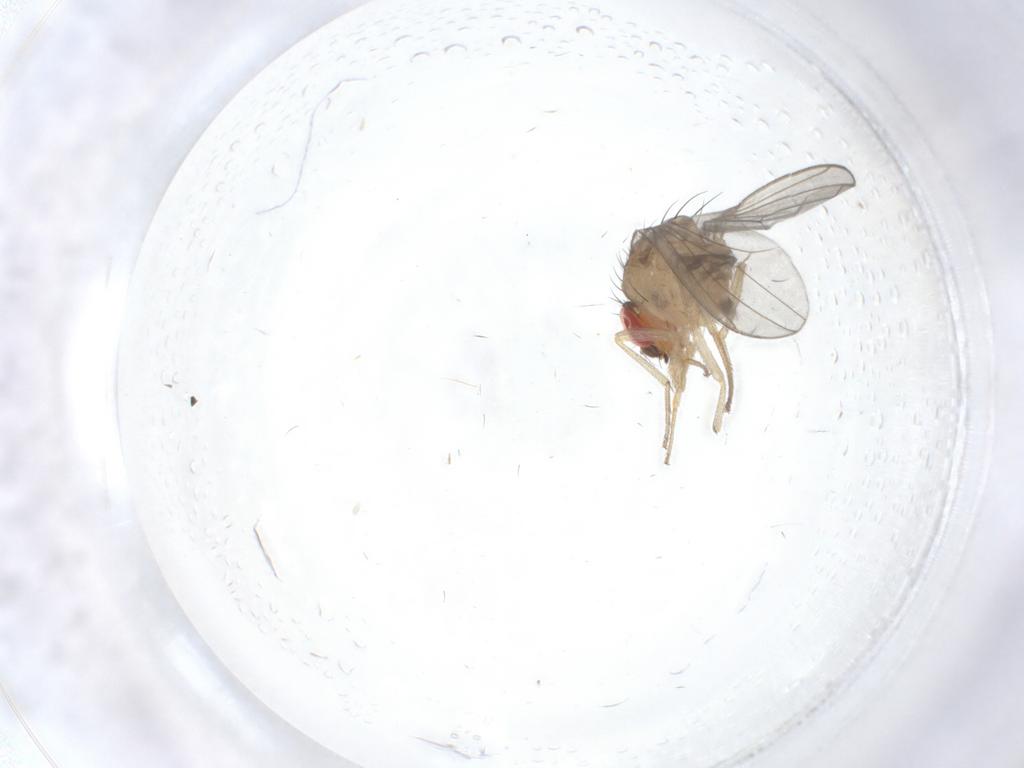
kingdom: Animalia
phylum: Arthropoda
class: Insecta
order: Diptera
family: Drosophilidae
